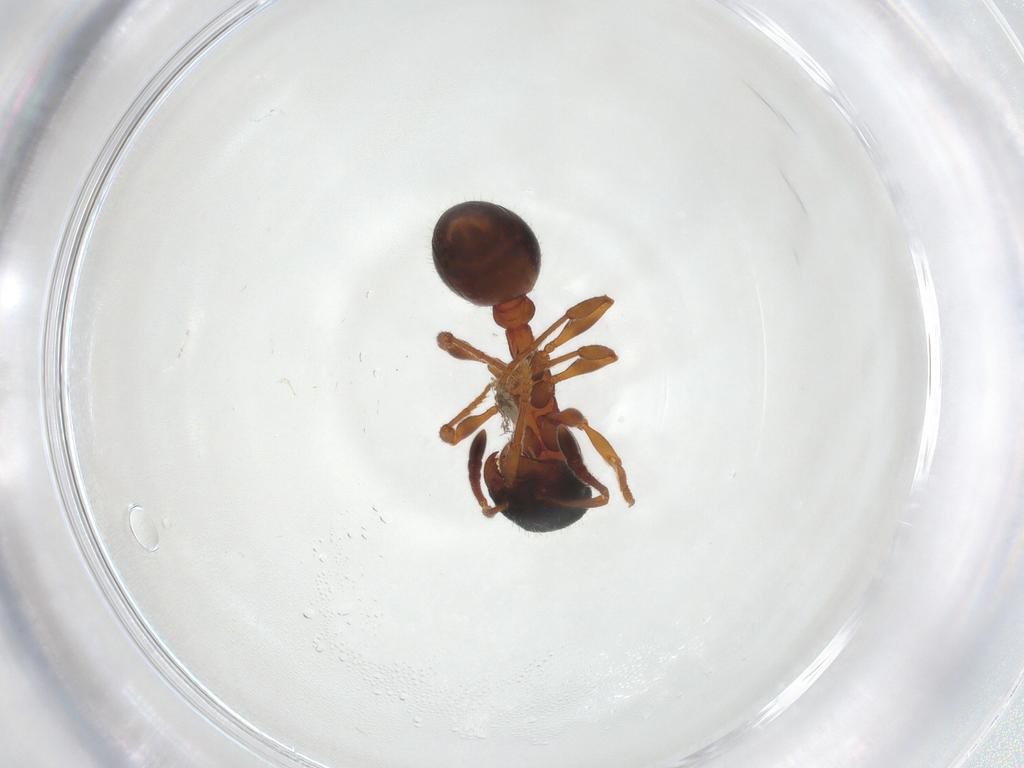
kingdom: Animalia
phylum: Arthropoda
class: Insecta
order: Hymenoptera
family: Formicidae
